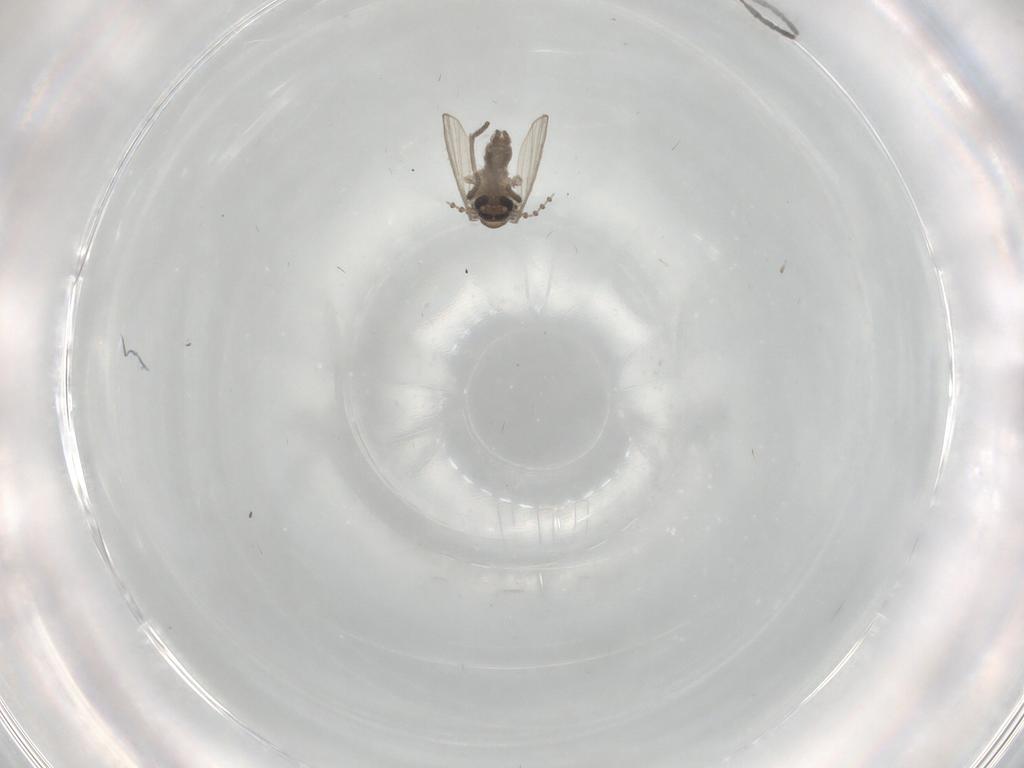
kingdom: Animalia
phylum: Arthropoda
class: Insecta
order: Diptera
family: Psychodidae
